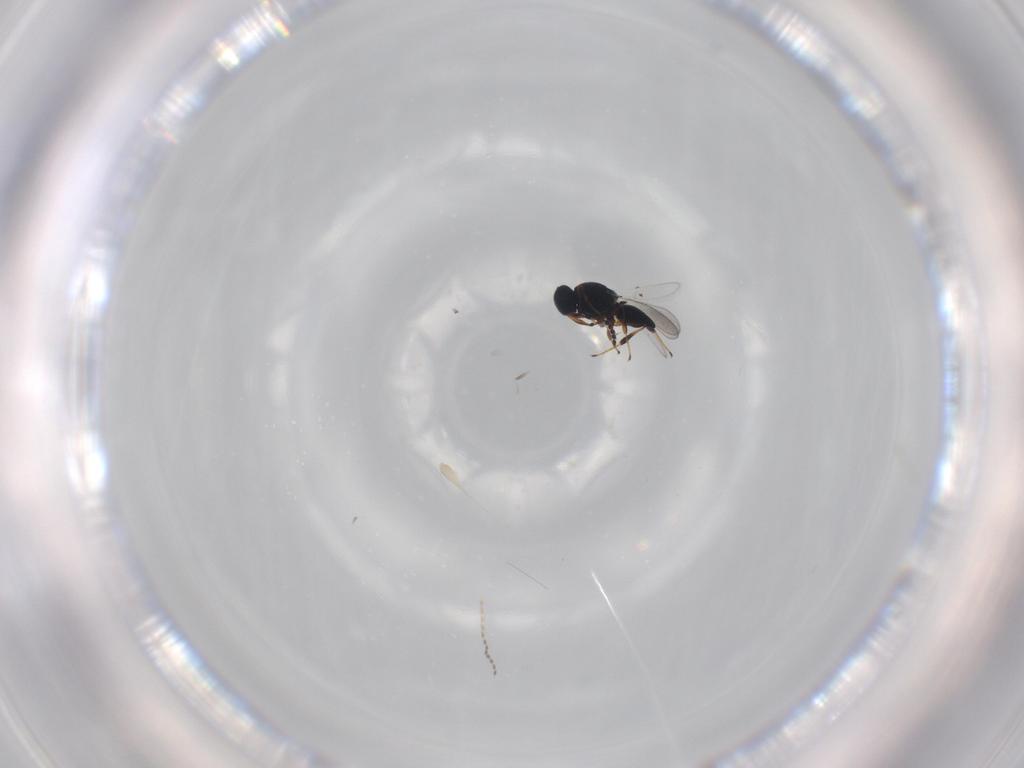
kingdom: Animalia
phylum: Arthropoda
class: Insecta
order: Hymenoptera
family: Platygastridae
